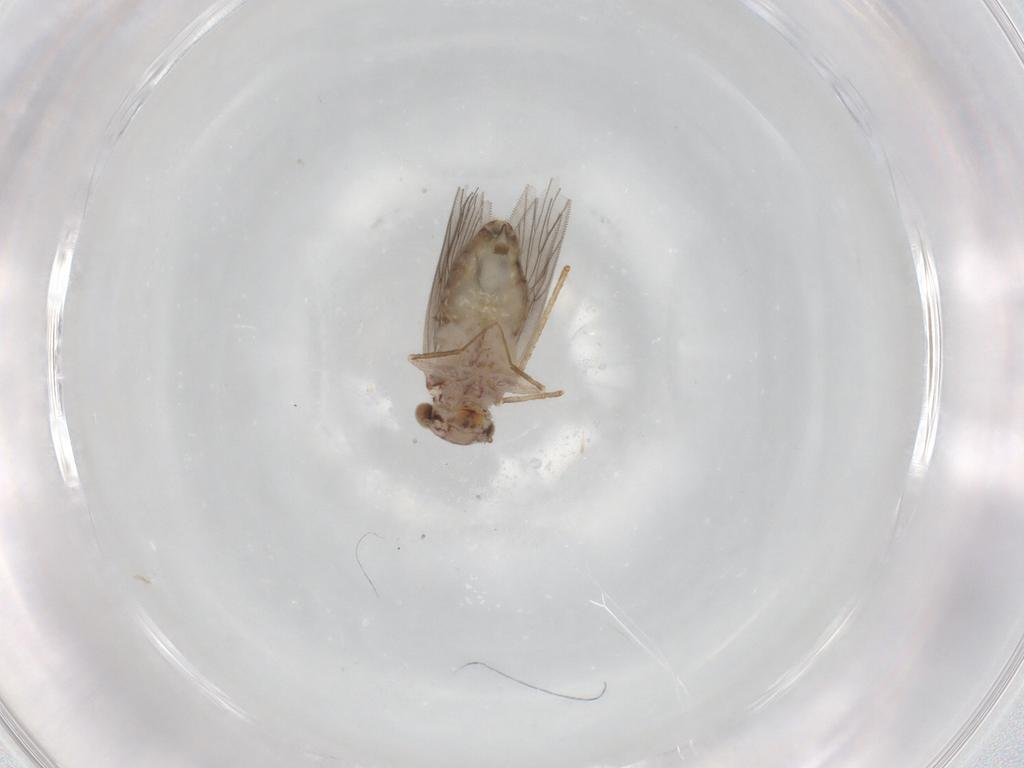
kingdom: Animalia
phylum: Arthropoda
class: Insecta
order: Psocodea
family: Lepidopsocidae
